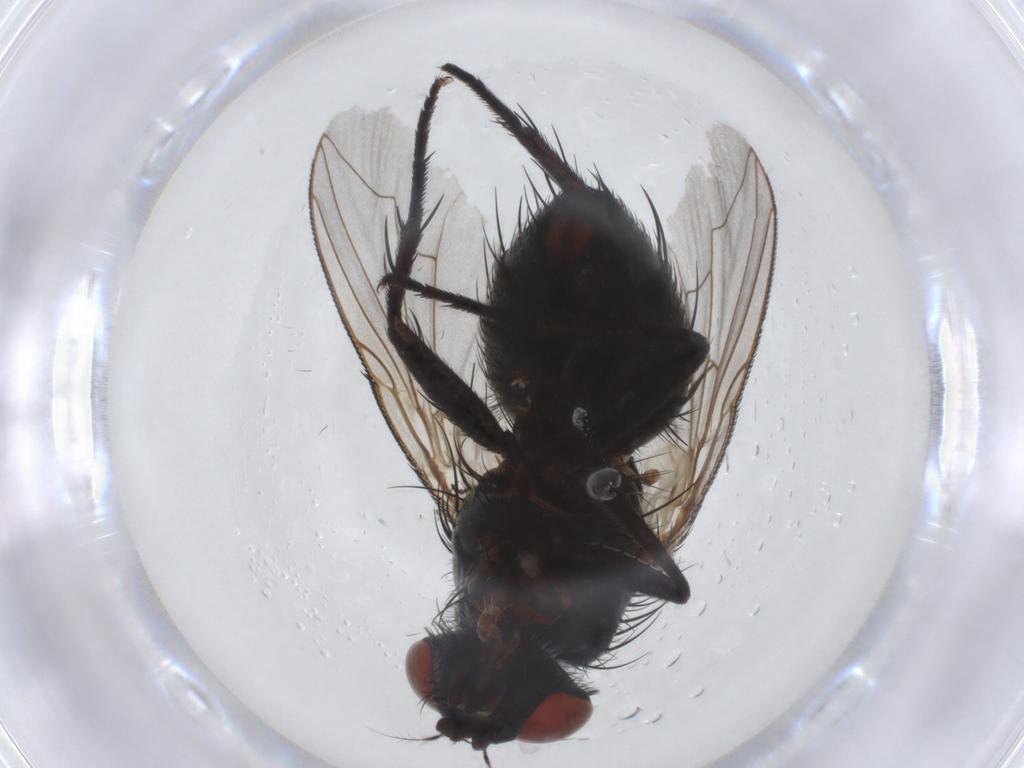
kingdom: Animalia
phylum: Arthropoda
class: Insecta
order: Diptera
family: Sarcophagidae
